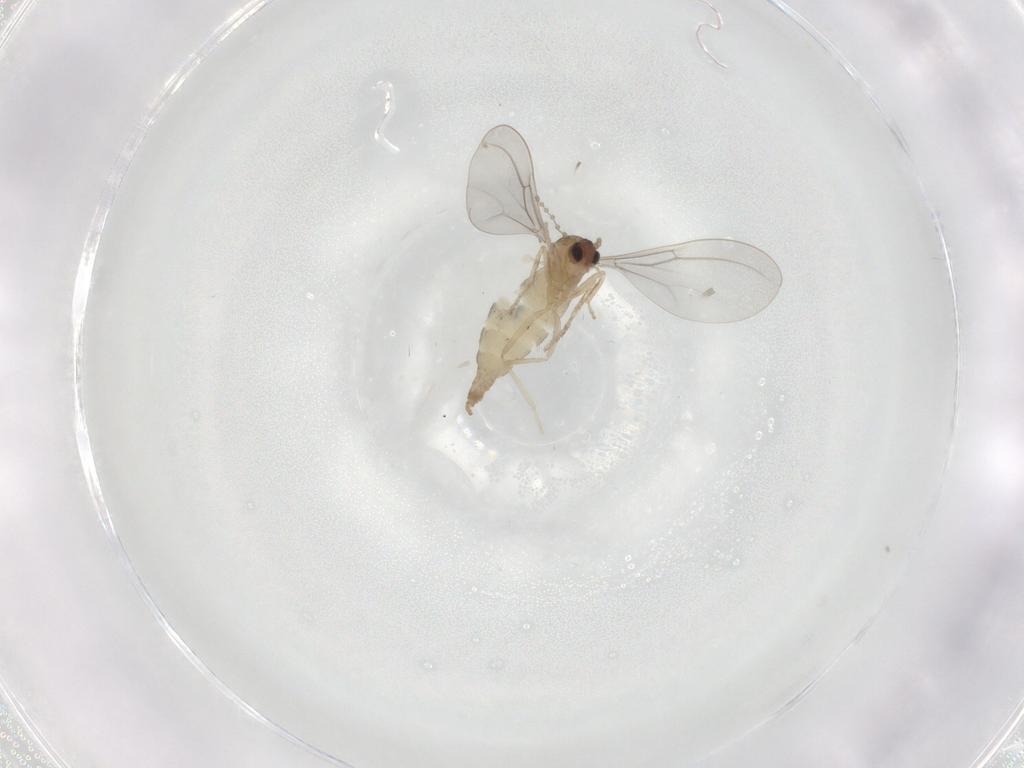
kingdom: Animalia
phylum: Arthropoda
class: Insecta
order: Diptera
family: Cecidomyiidae
